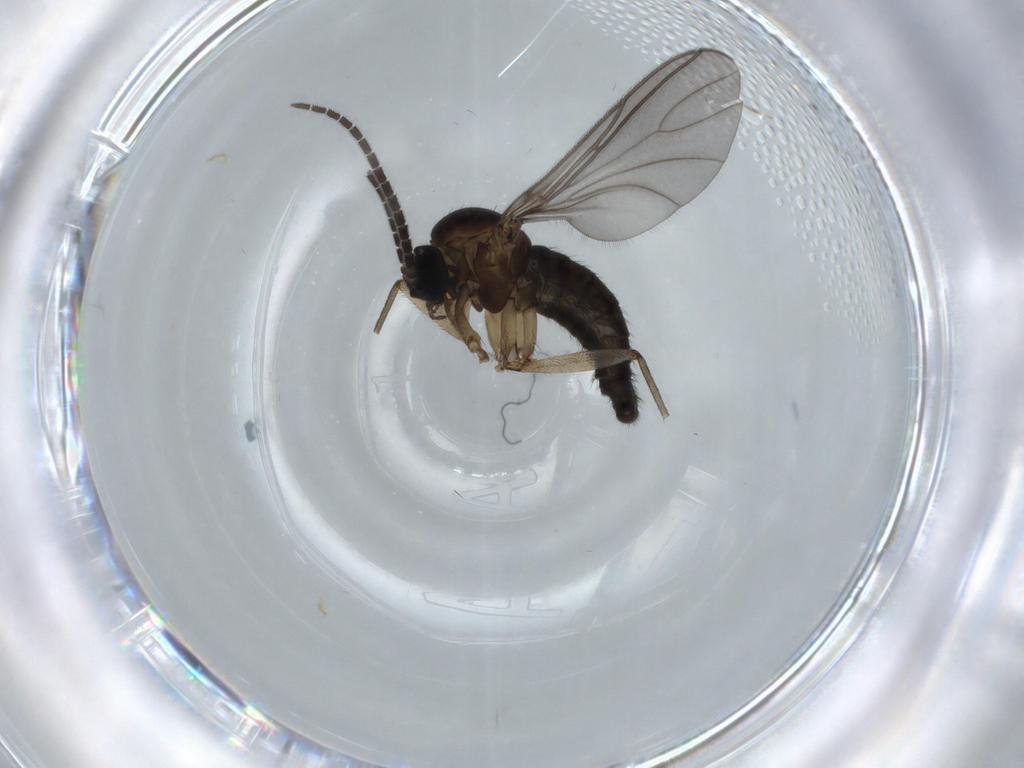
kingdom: Animalia
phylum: Arthropoda
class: Insecta
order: Diptera
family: Sciaridae
